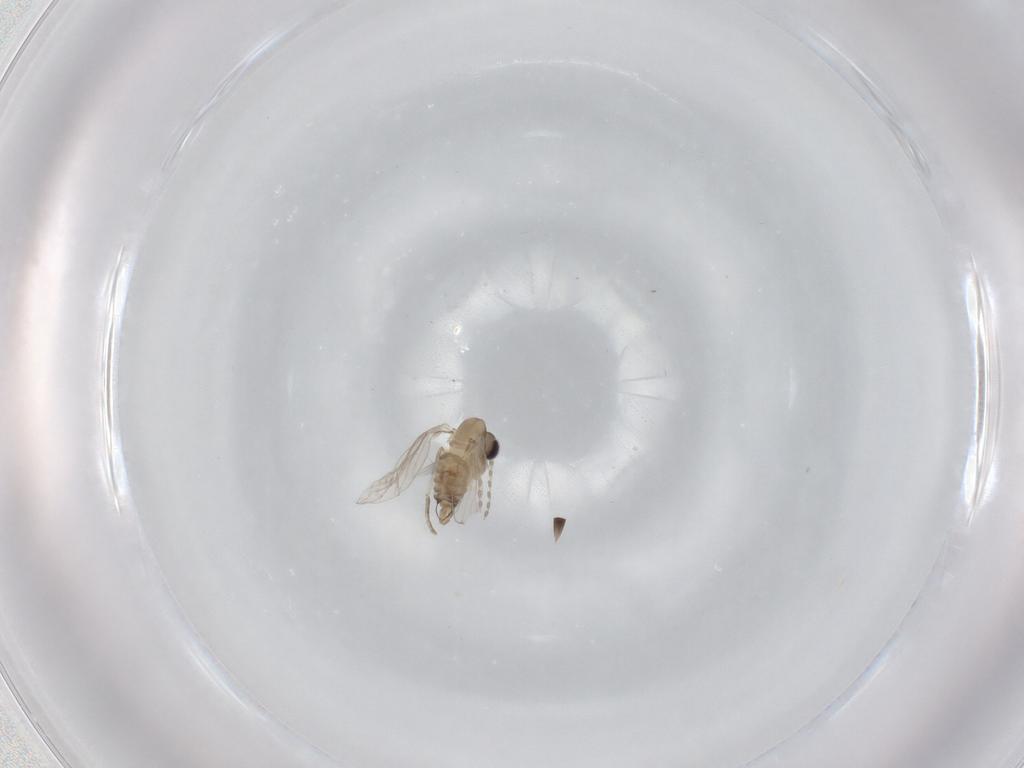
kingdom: Animalia
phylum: Arthropoda
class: Insecta
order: Diptera
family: Psychodidae
